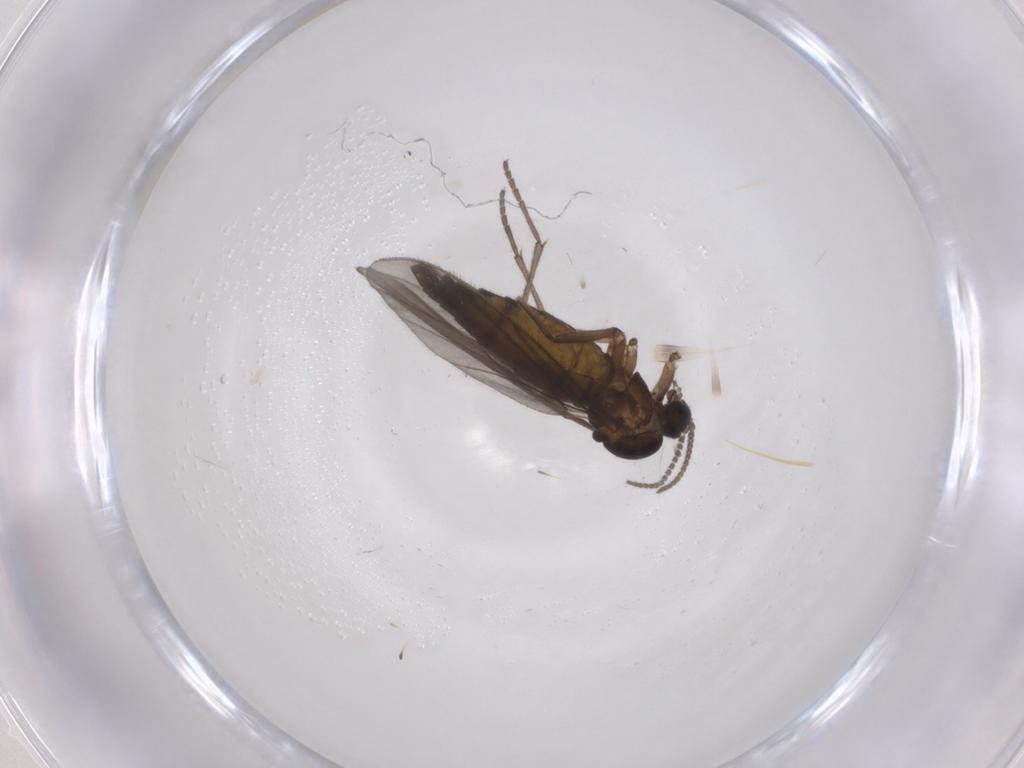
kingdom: Animalia
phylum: Arthropoda
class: Insecta
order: Diptera
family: Sciaridae
